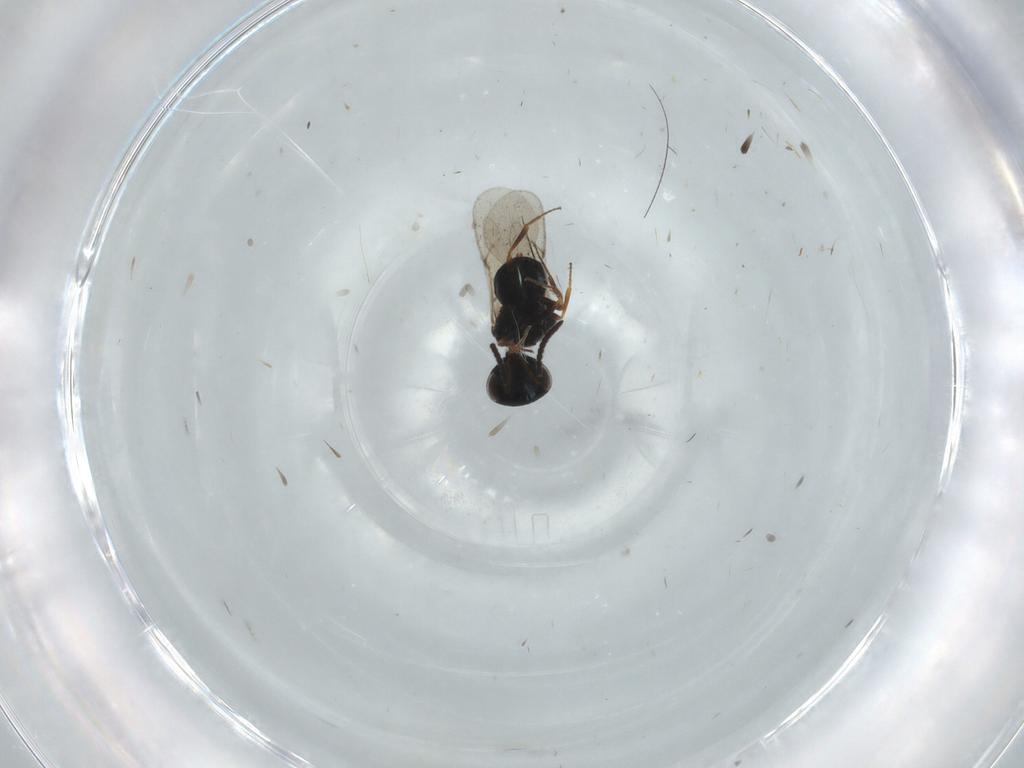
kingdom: Animalia
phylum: Arthropoda
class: Insecta
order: Hymenoptera
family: Scelionidae
